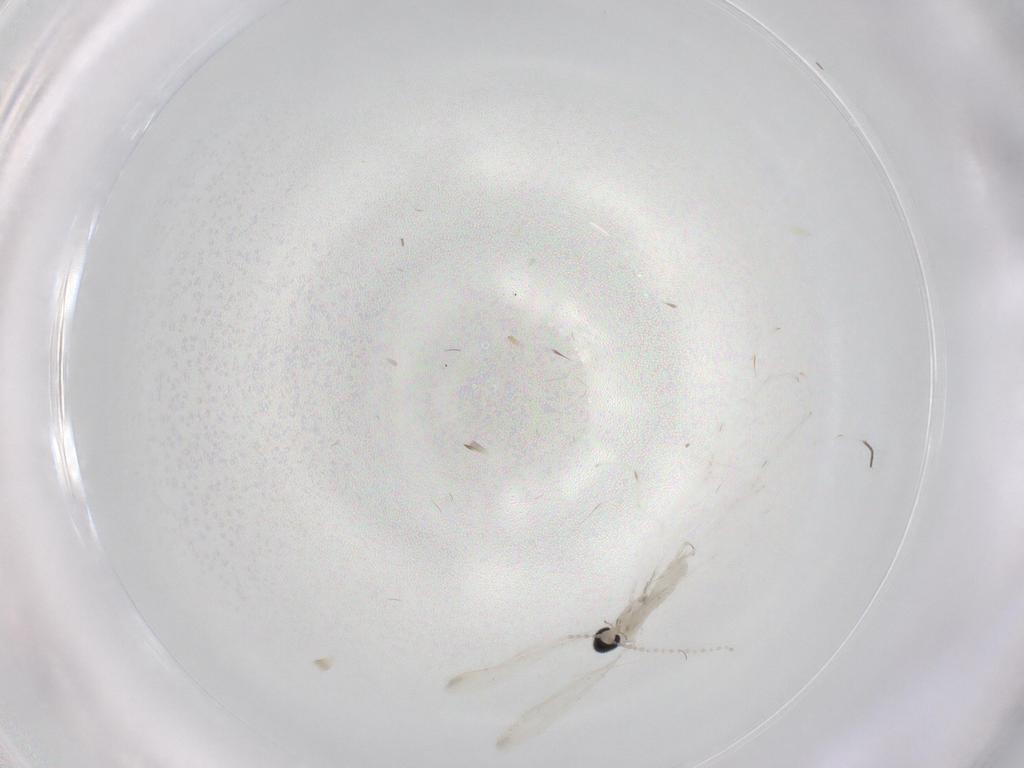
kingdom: Animalia
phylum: Arthropoda
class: Insecta
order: Diptera
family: Chironomidae
